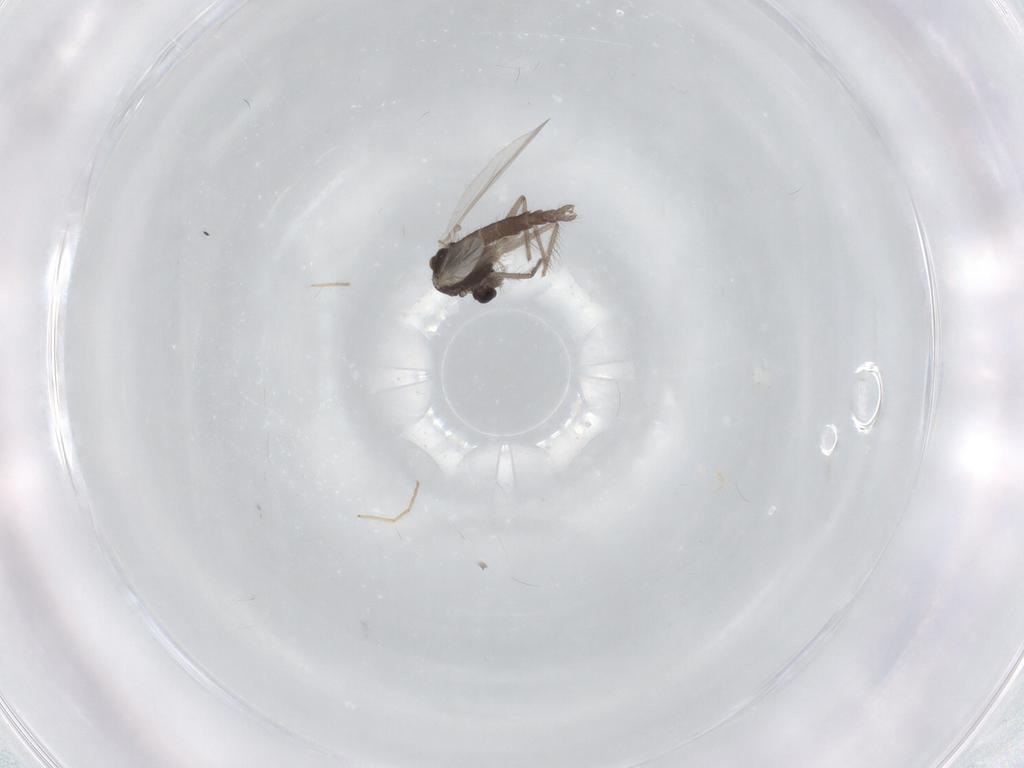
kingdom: Animalia
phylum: Arthropoda
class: Insecta
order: Diptera
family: Chironomidae
